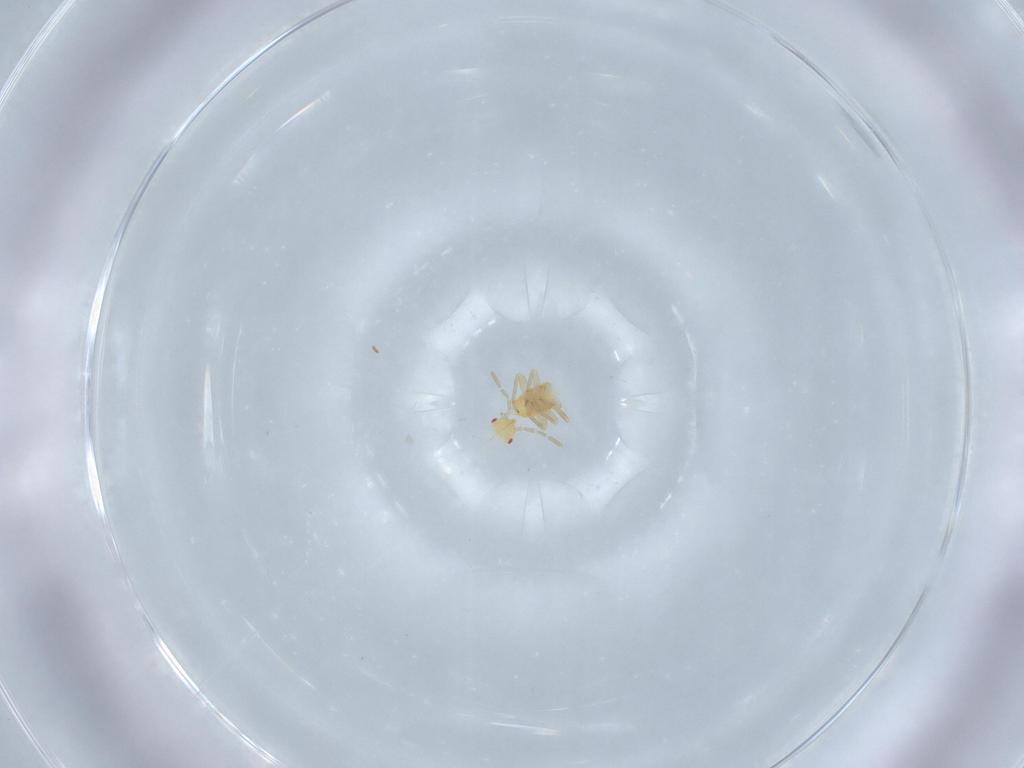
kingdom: Animalia
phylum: Arthropoda
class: Insecta
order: Hemiptera
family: Miridae
